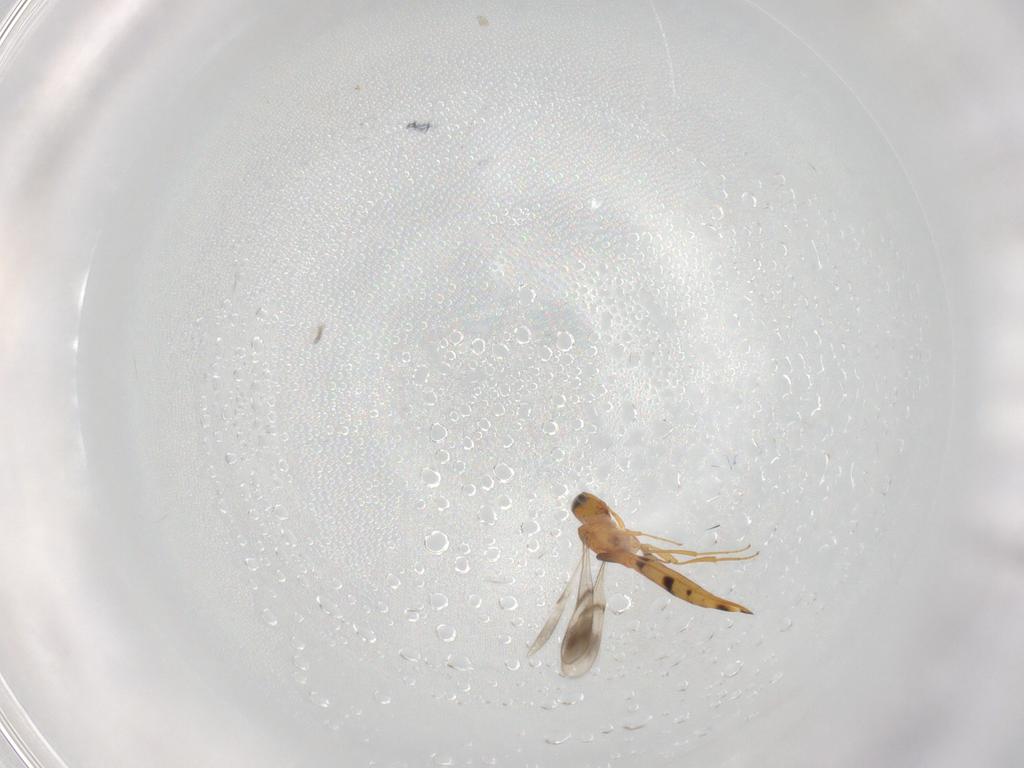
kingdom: Animalia
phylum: Arthropoda
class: Insecta
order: Hymenoptera
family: Scelionidae
